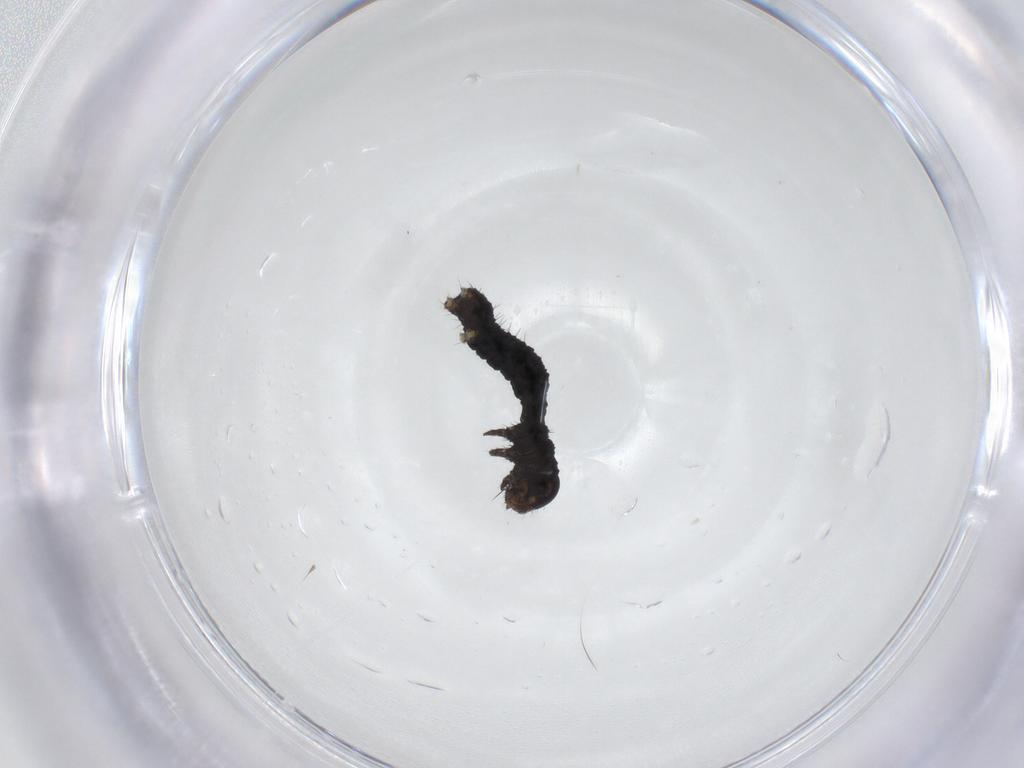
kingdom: Animalia
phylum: Arthropoda
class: Insecta
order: Lepidoptera
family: Geometridae
